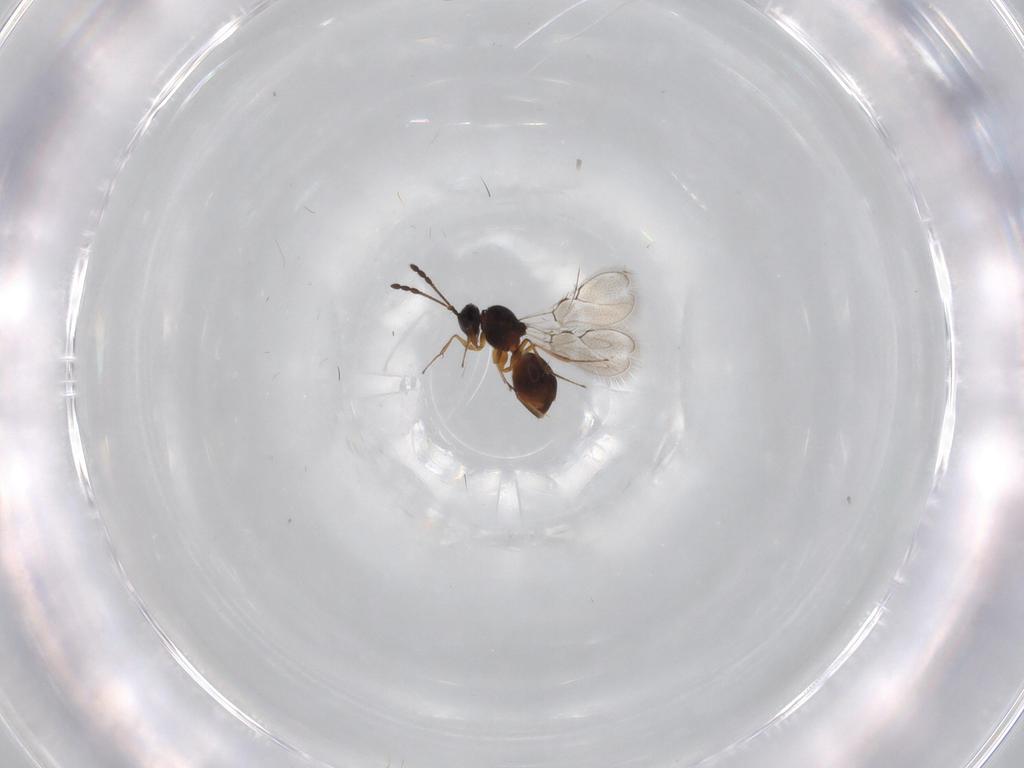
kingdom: Animalia
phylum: Arthropoda
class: Insecta
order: Hymenoptera
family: Figitidae
